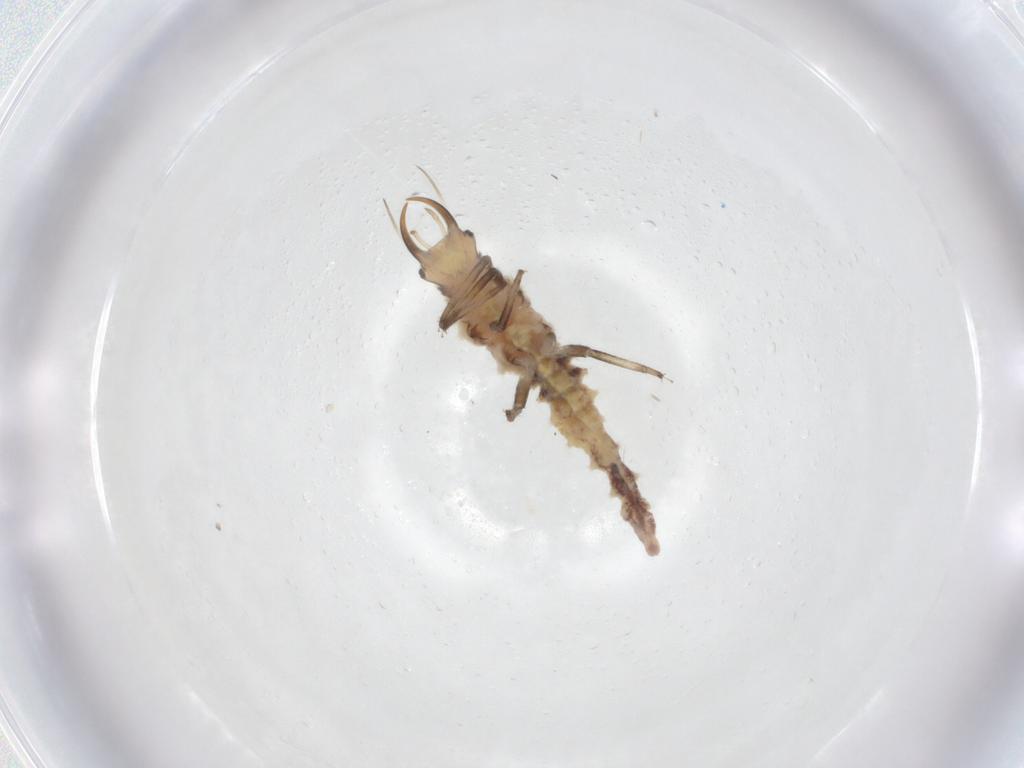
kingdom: Animalia
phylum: Arthropoda
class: Insecta
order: Neuroptera
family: Chrysopidae
